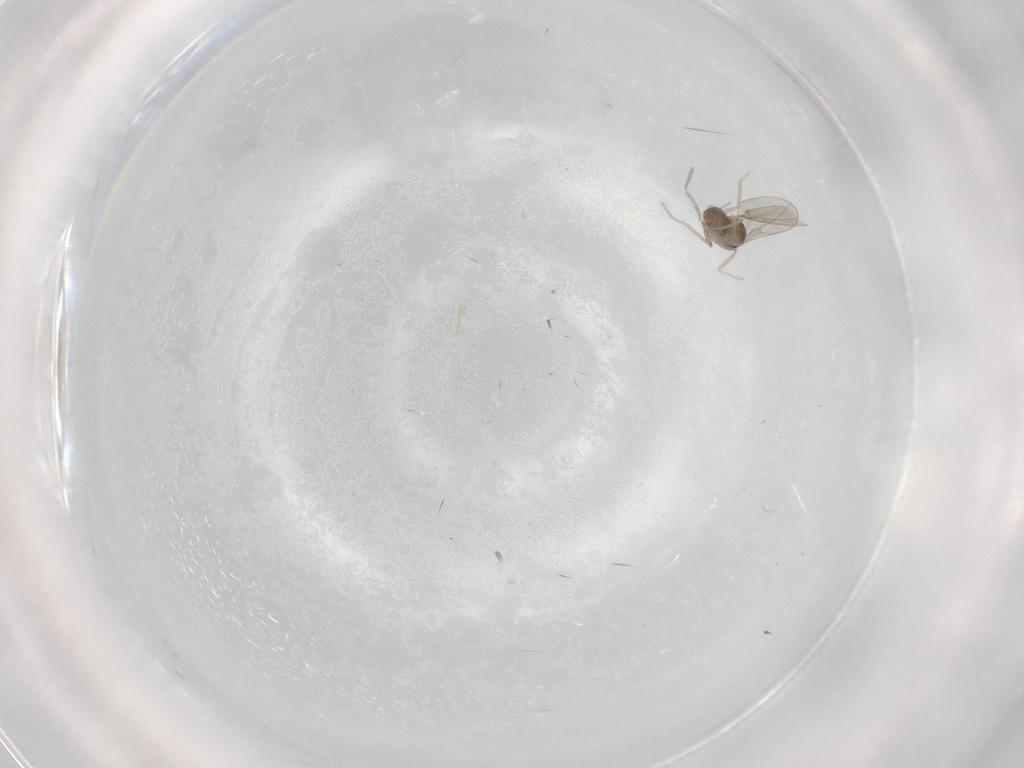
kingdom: Animalia
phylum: Arthropoda
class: Insecta
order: Diptera
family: Cecidomyiidae
